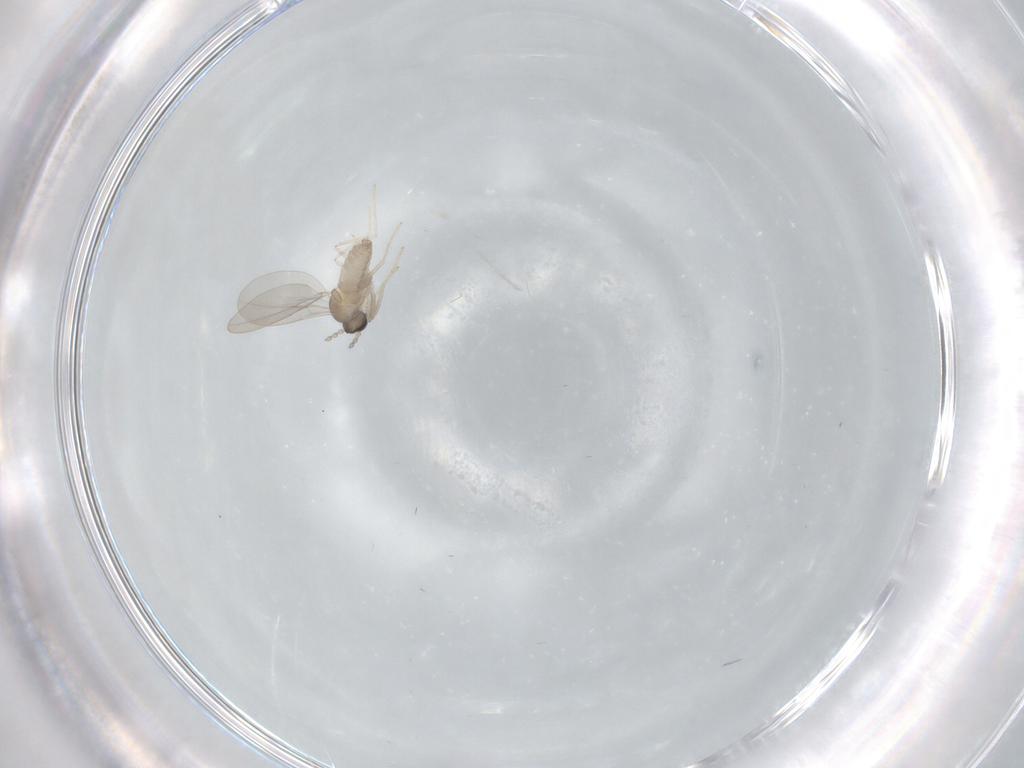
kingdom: Animalia
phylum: Arthropoda
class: Insecta
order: Diptera
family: Cecidomyiidae
